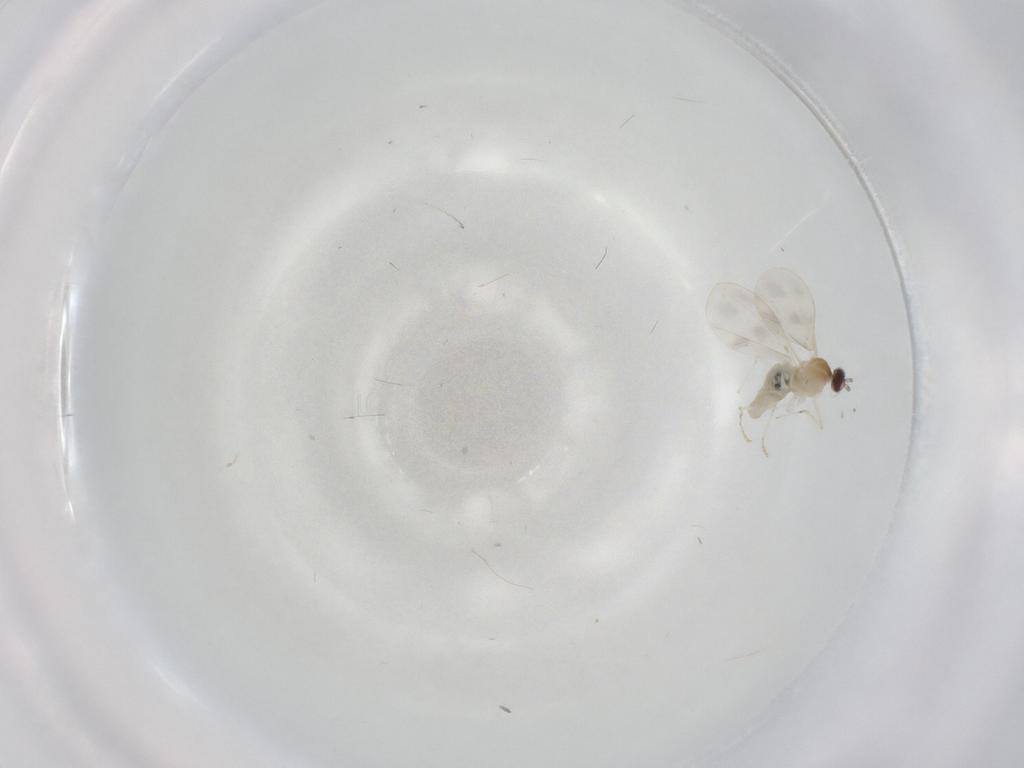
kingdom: Animalia
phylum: Arthropoda
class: Insecta
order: Diptera
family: Cecidomyiidae
